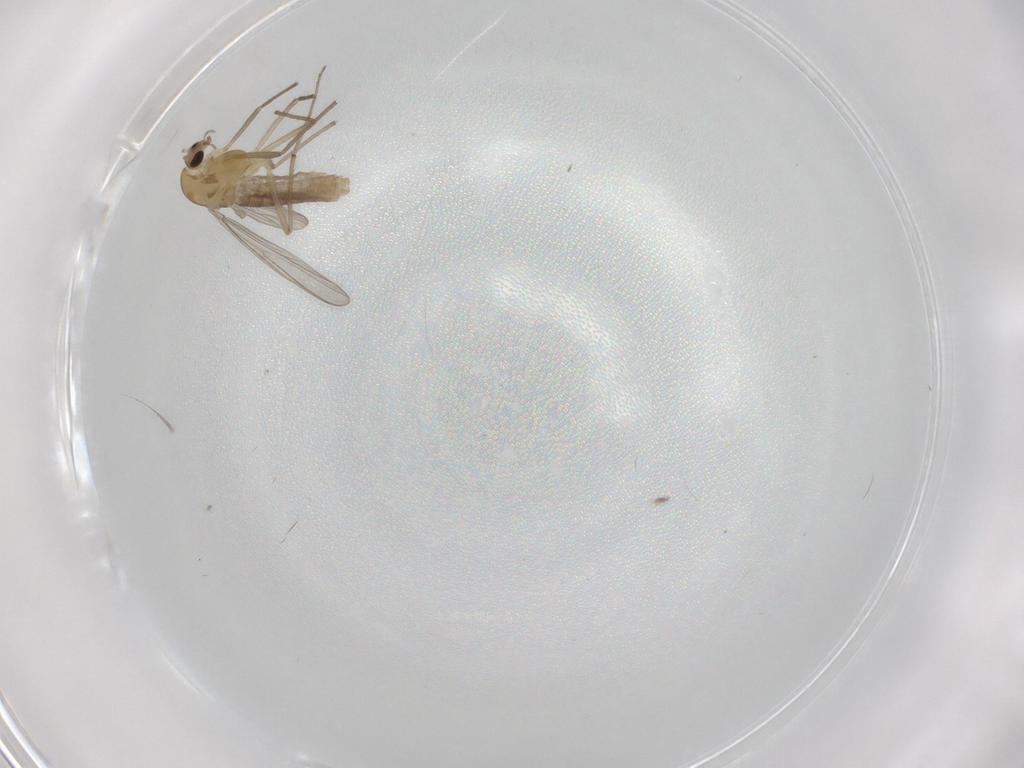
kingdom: Animalia
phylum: Arthropoda
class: Insecta
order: Diptera
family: Chironomidae
